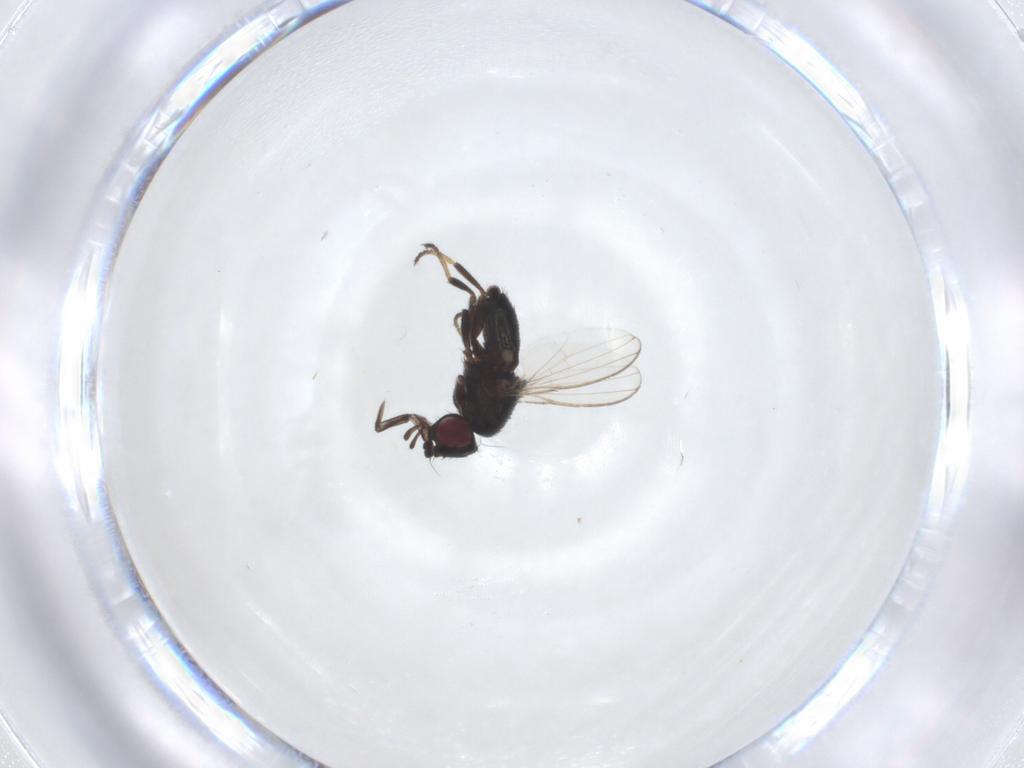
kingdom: Animalia
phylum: Arthropoda
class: Insecta
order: Diptera
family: Milichiidae
